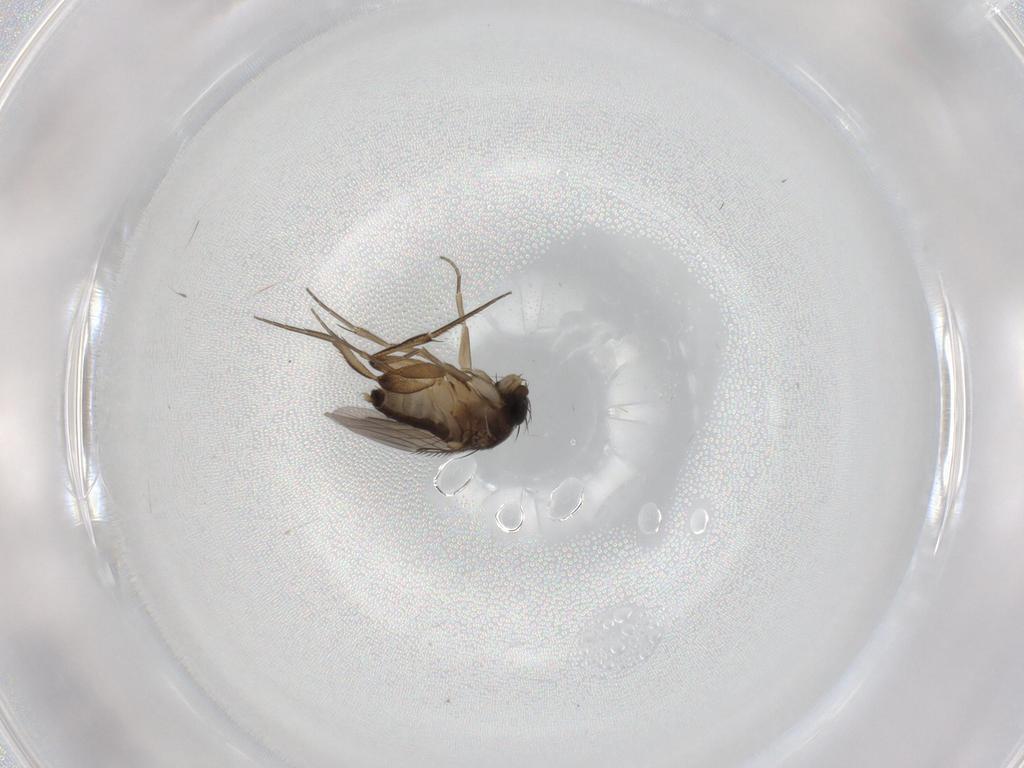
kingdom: Animalia
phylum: Arthropoda
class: Insecta
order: Diptera
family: Phoridae
